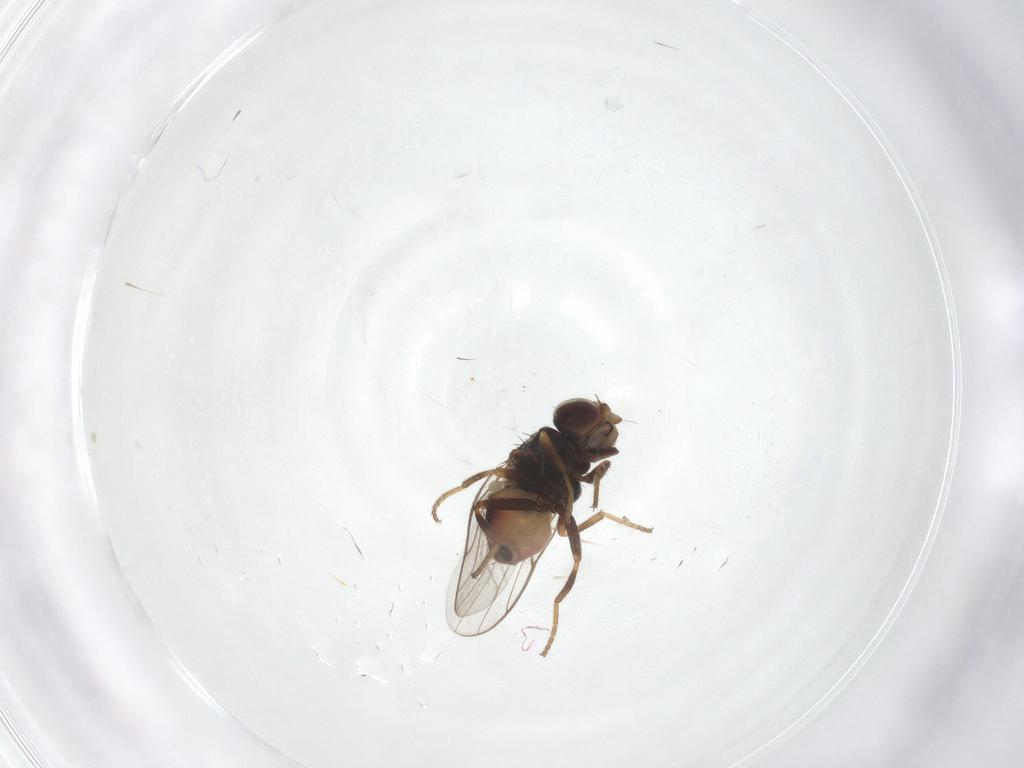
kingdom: Animalia
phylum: Arthropoda
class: Insecta
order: Diptera
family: Chloropidae
